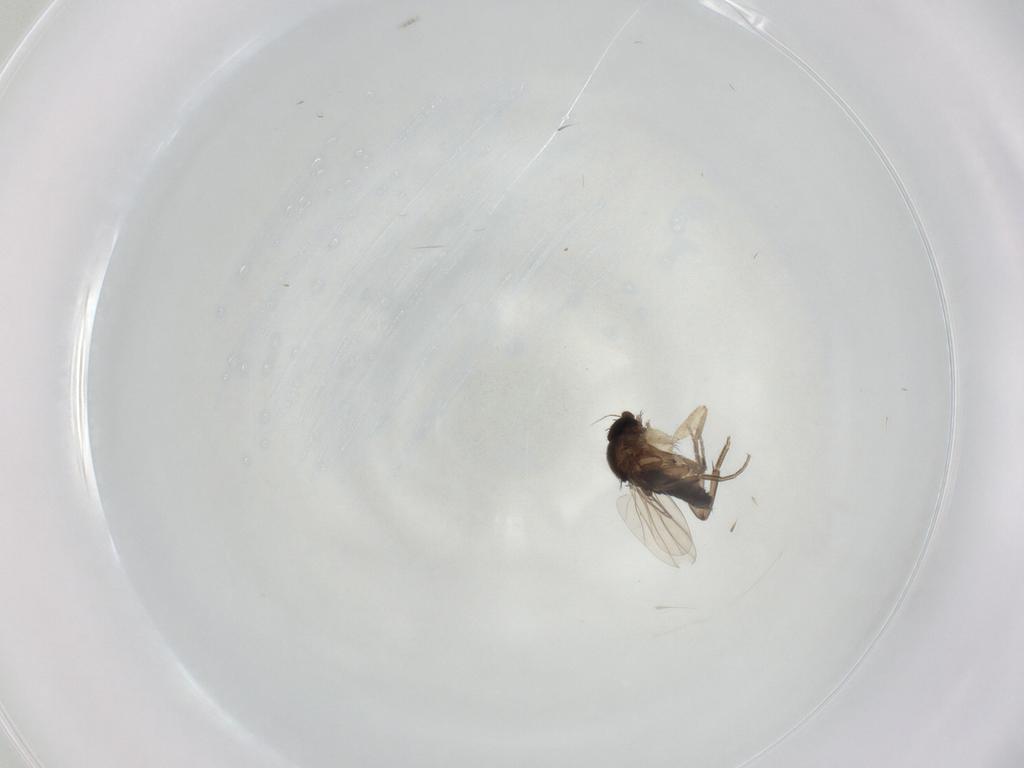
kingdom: Animalia
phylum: Arthropoda
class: Insecta
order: Diptera
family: Phoridae
